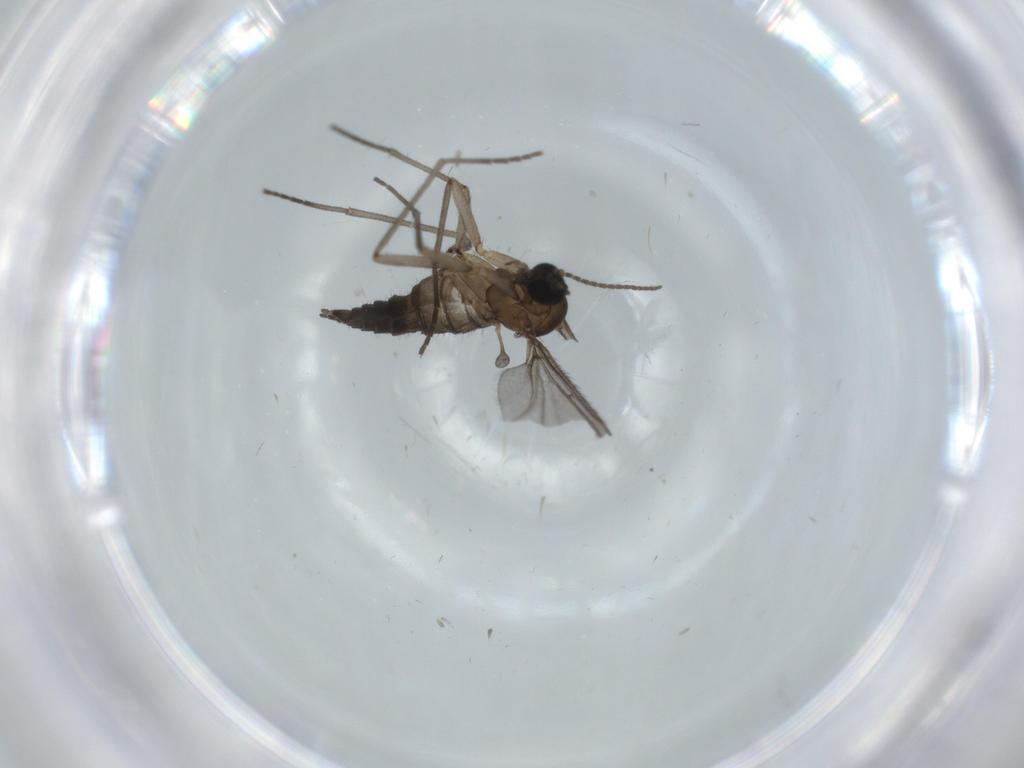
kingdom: Animalia
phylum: Arthropoda
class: Insecta
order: Diptera
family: Sciaridae
